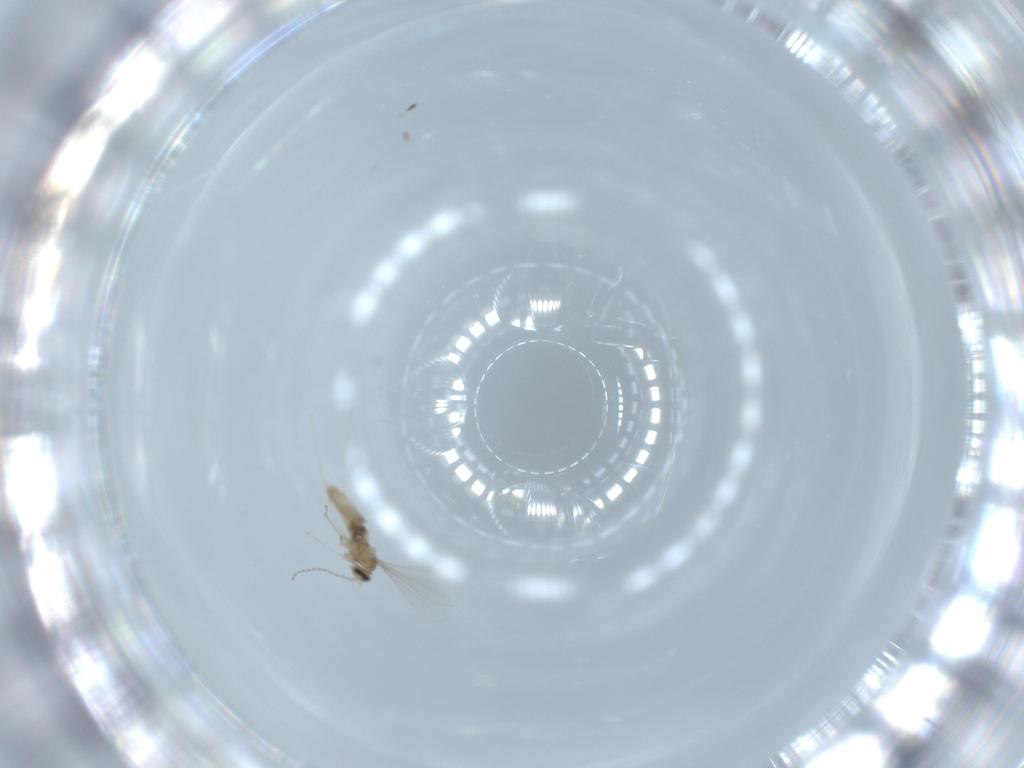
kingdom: Animalia
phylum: Arthropoda
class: Insecta
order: Diptera
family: Cecidomyiidae
